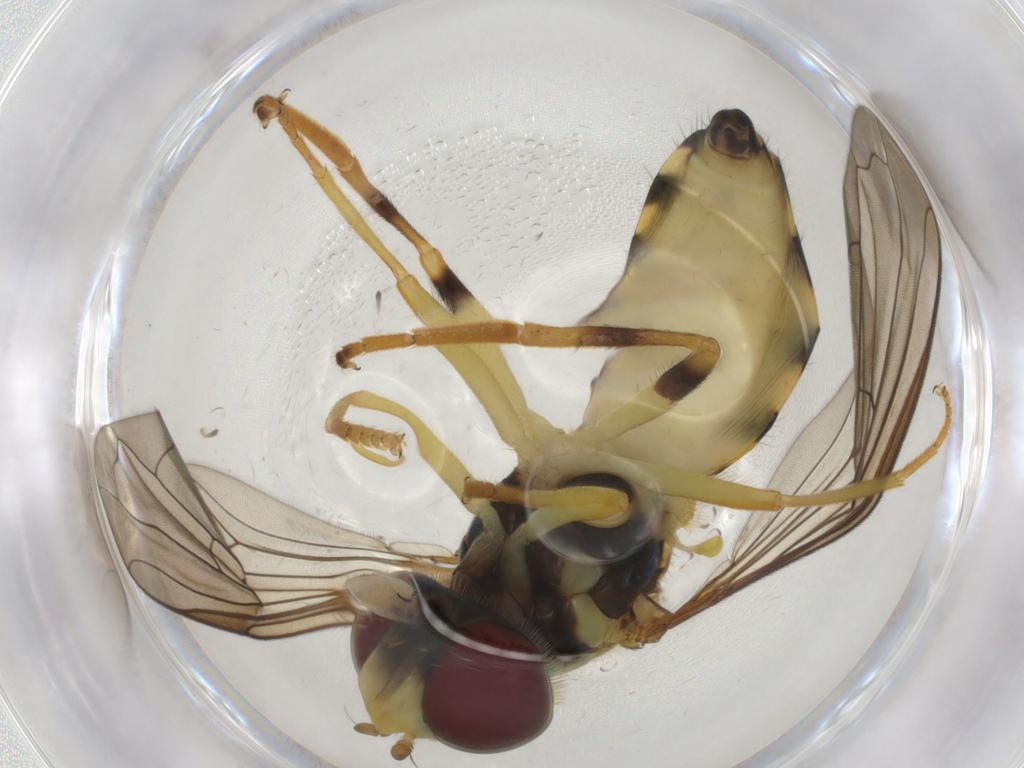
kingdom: Animalia
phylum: Arthropoda
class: Insecta
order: Diptera
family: Syrphidae
